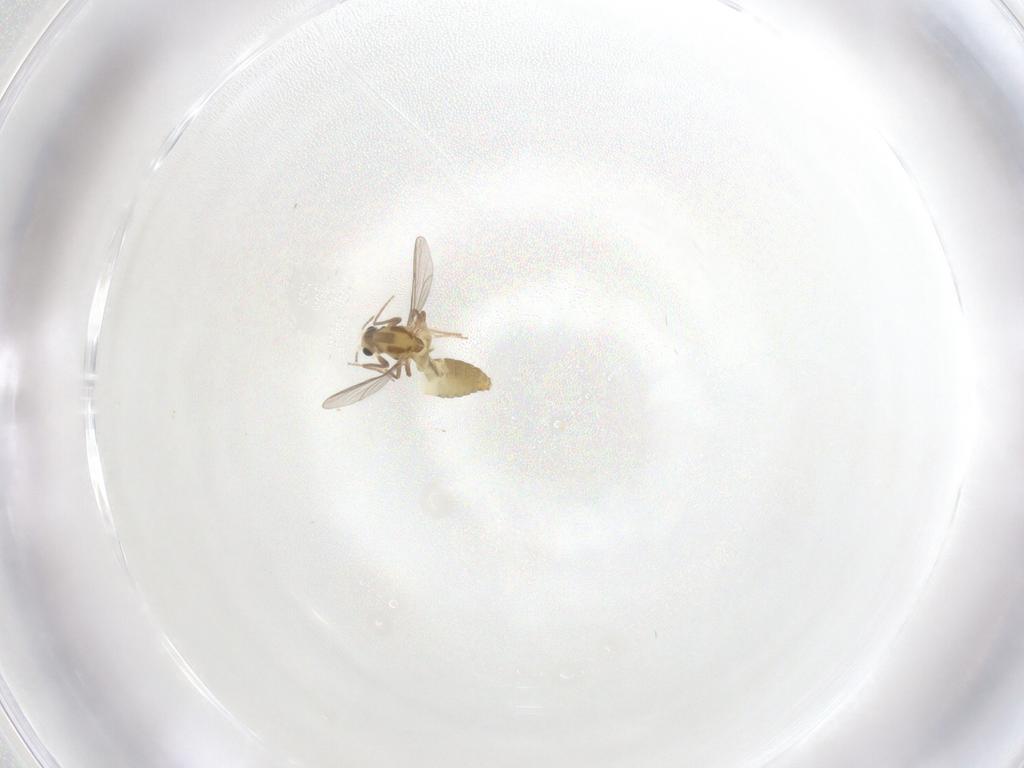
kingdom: Animalia
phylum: Arthropoda
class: Insecta
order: Diptera
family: Chironomidae
